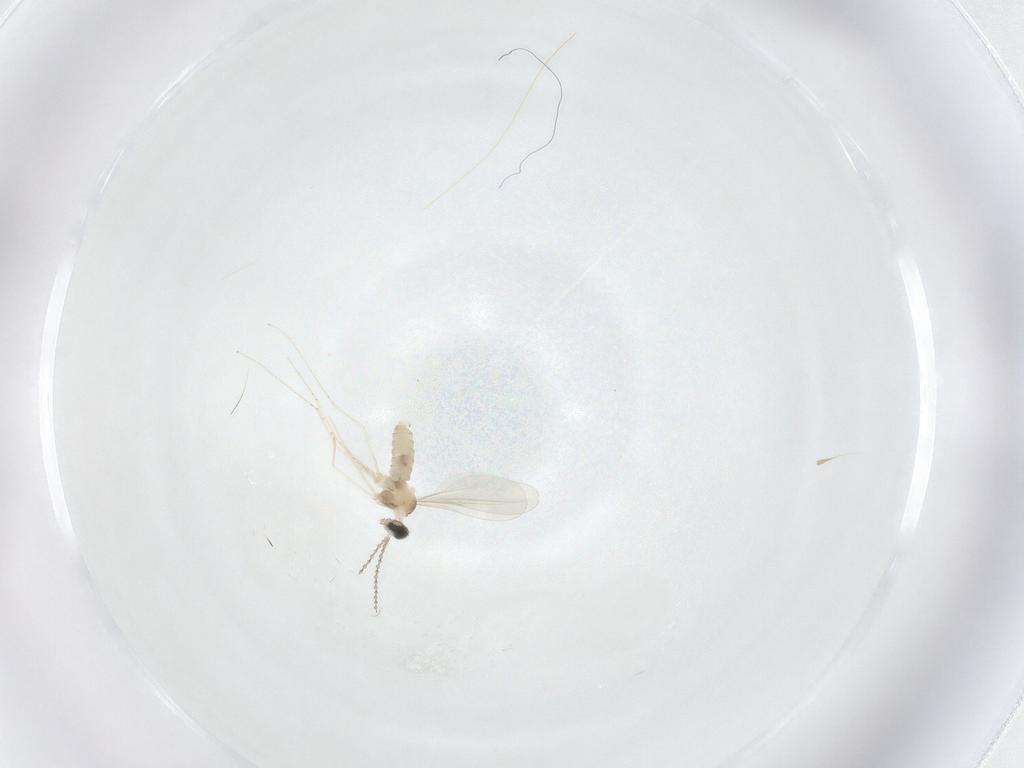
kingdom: Animalia
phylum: Arthropoda
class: Insecta
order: Diptera
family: Cecidomyiidae
